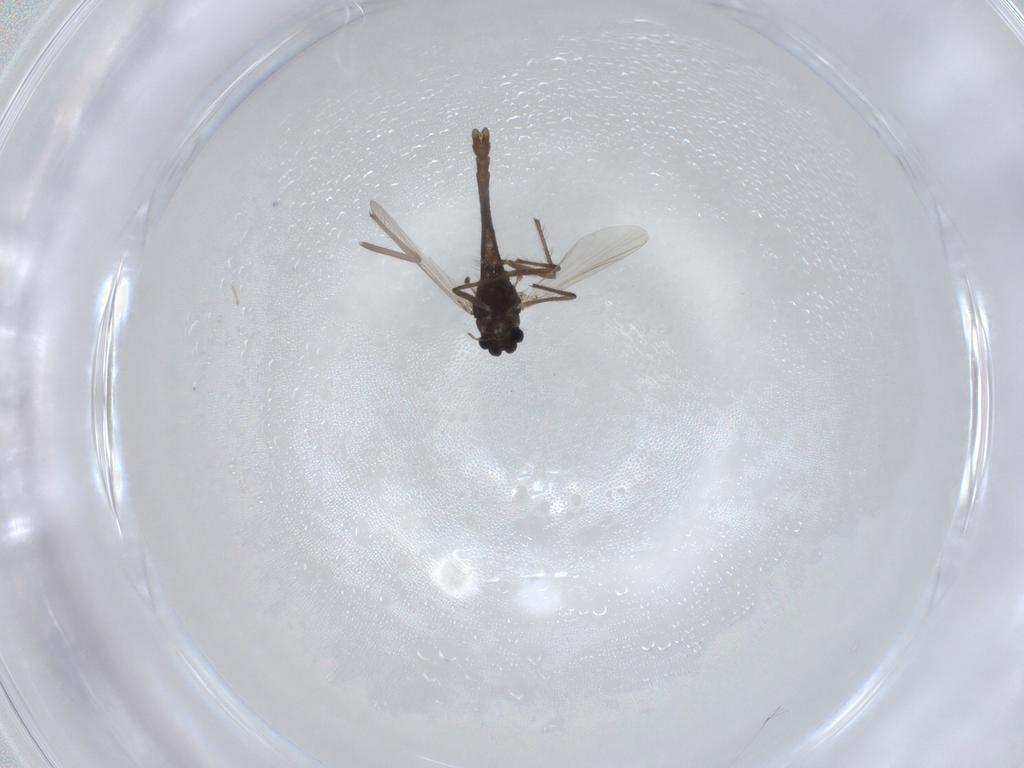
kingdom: Animalia
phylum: Arthropoda
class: Insecta
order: Diptera
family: Chironomidae
